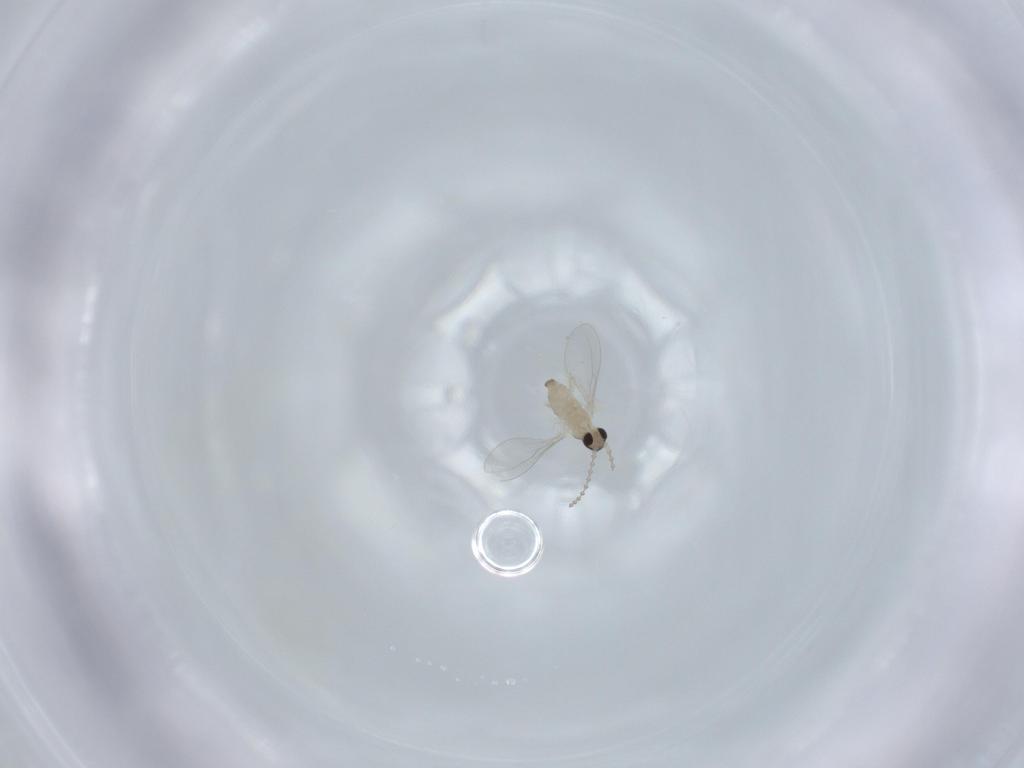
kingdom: Animalia
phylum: Arthropoda
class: Insecta
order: Diptera
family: Cecidomyiidae
